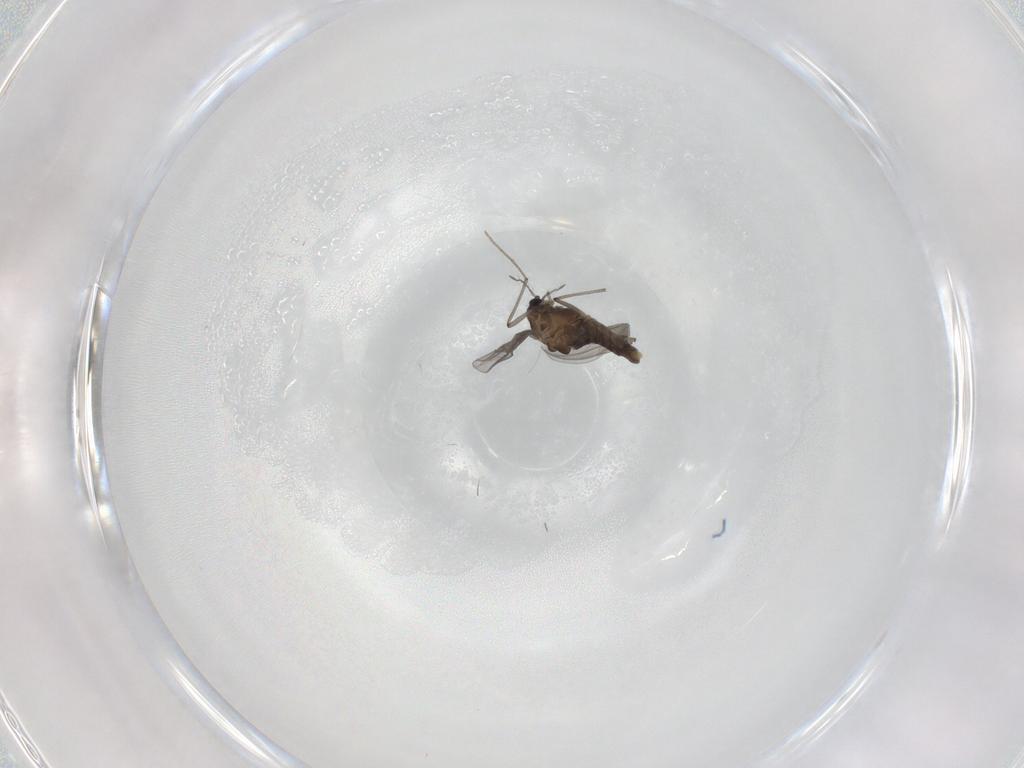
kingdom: Animalia
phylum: Arthropoda
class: Insecta
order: Diptera
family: Chironomidae
